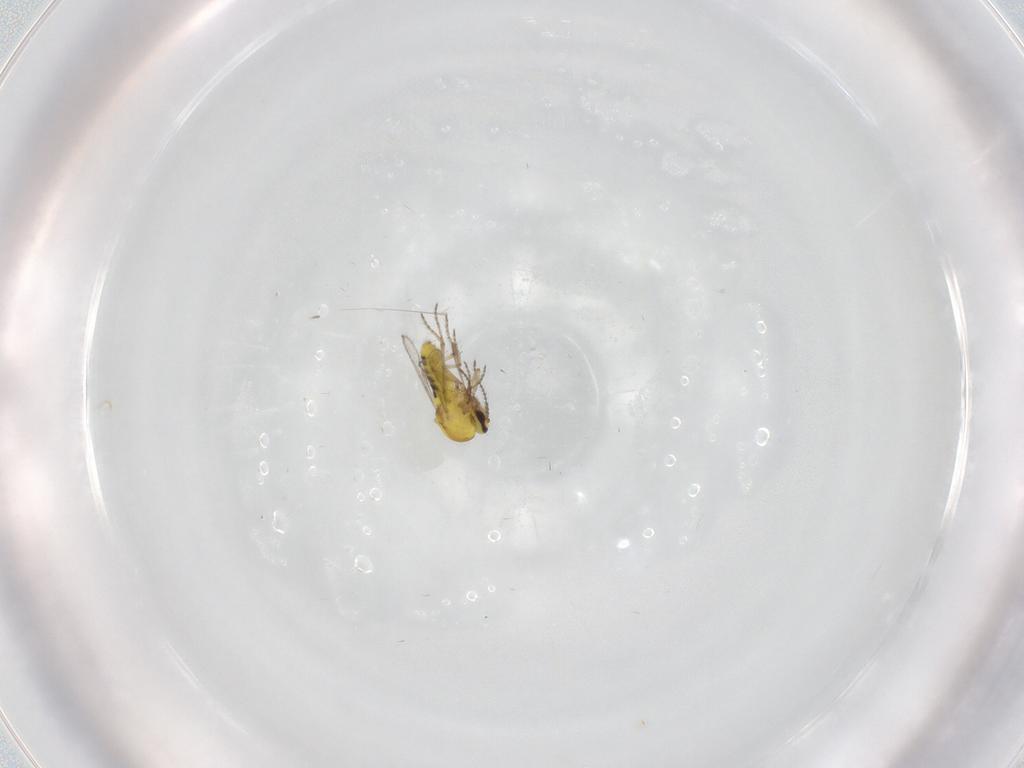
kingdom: Animalia
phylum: Arthropoda
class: Insecta
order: Diptera
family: Ceratopogonidae
